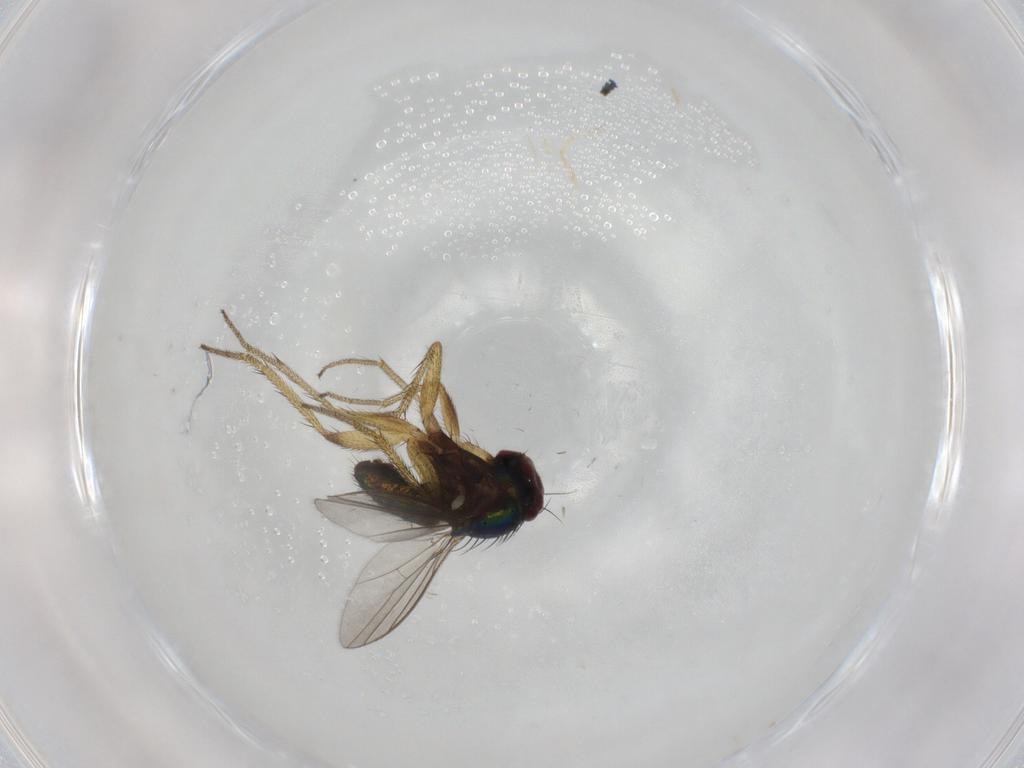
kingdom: Animalia
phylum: Arthropoda
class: Insecta
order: Diptera
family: Dolichopodidae
